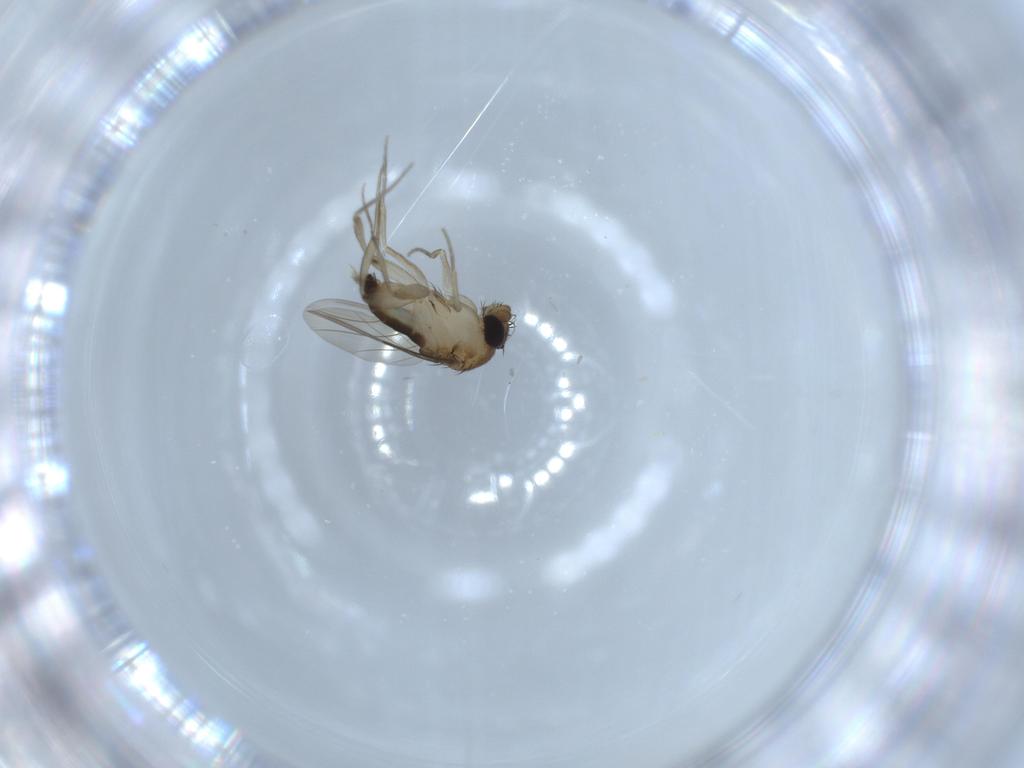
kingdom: Animalia
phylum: Arthropoda
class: Insecta
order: Diptera
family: Phoridae
